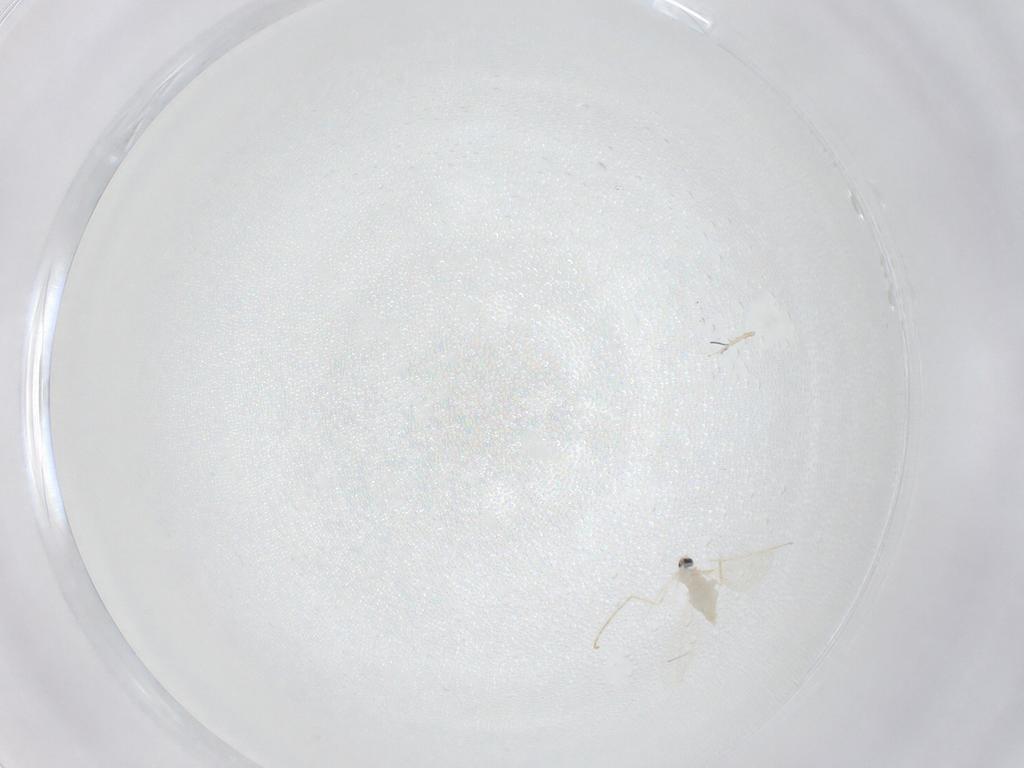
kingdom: Animalia
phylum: Arthropoda
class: Insecta
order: Diptera
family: Cecidomyiidae
